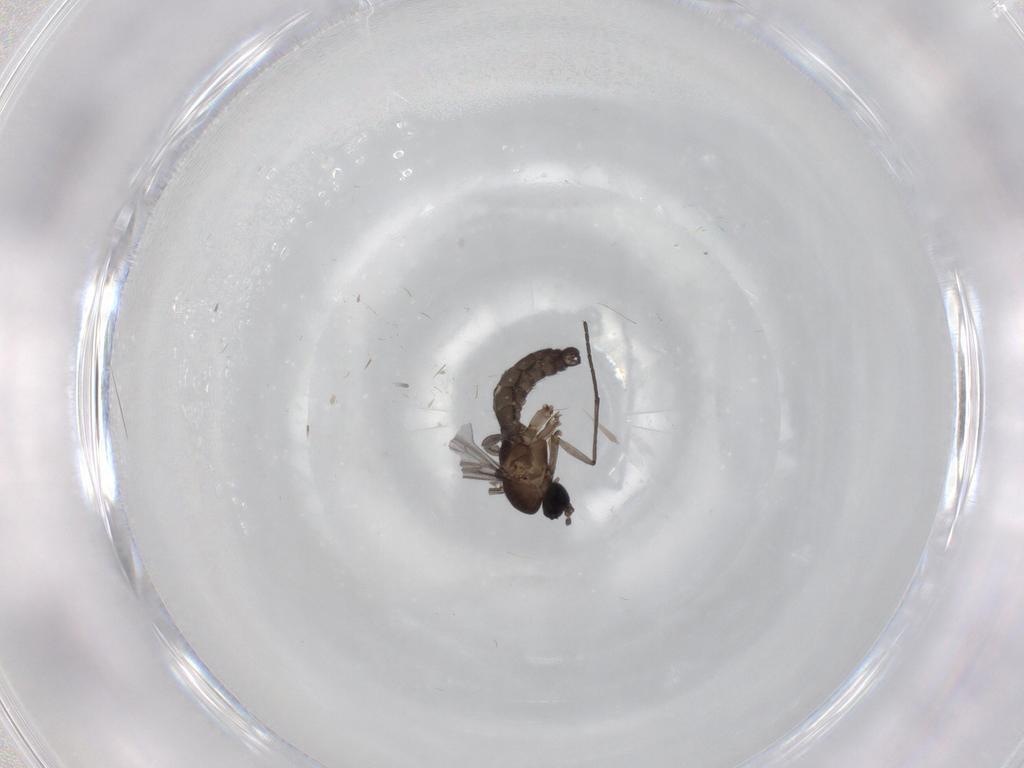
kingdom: Animalia
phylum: Arthropoda
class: Insecta
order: Diptera
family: Sciaridae
